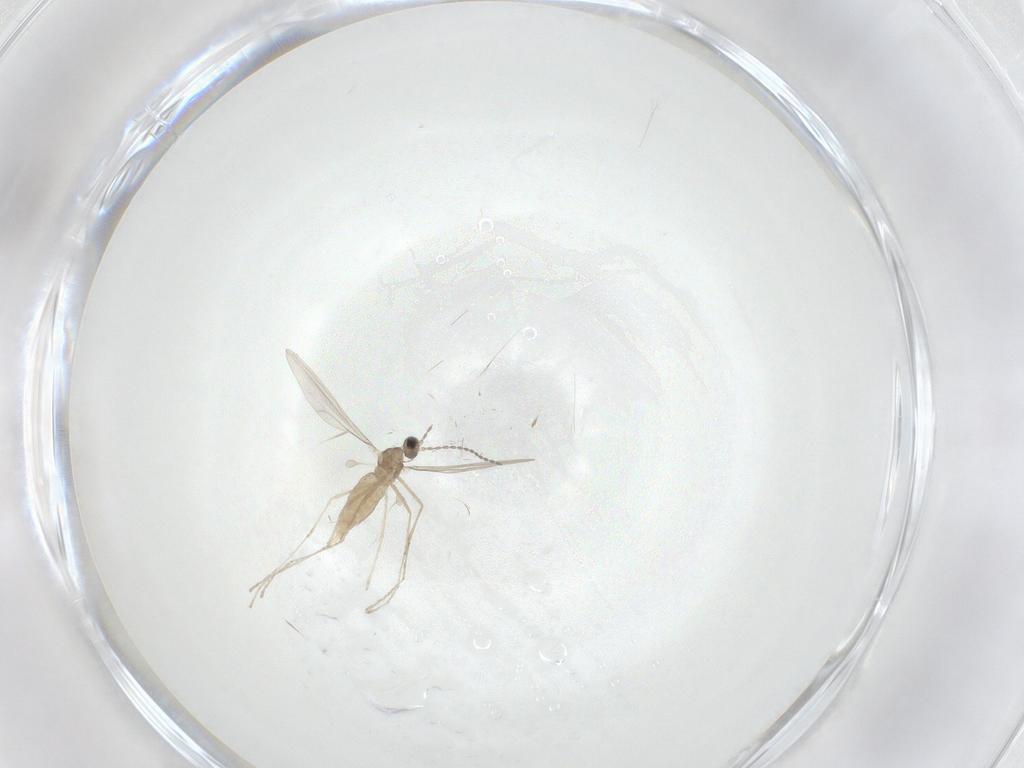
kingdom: Animalia
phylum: Arthropoda
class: Insecta
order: Diptera
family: Cecidomyiidae
